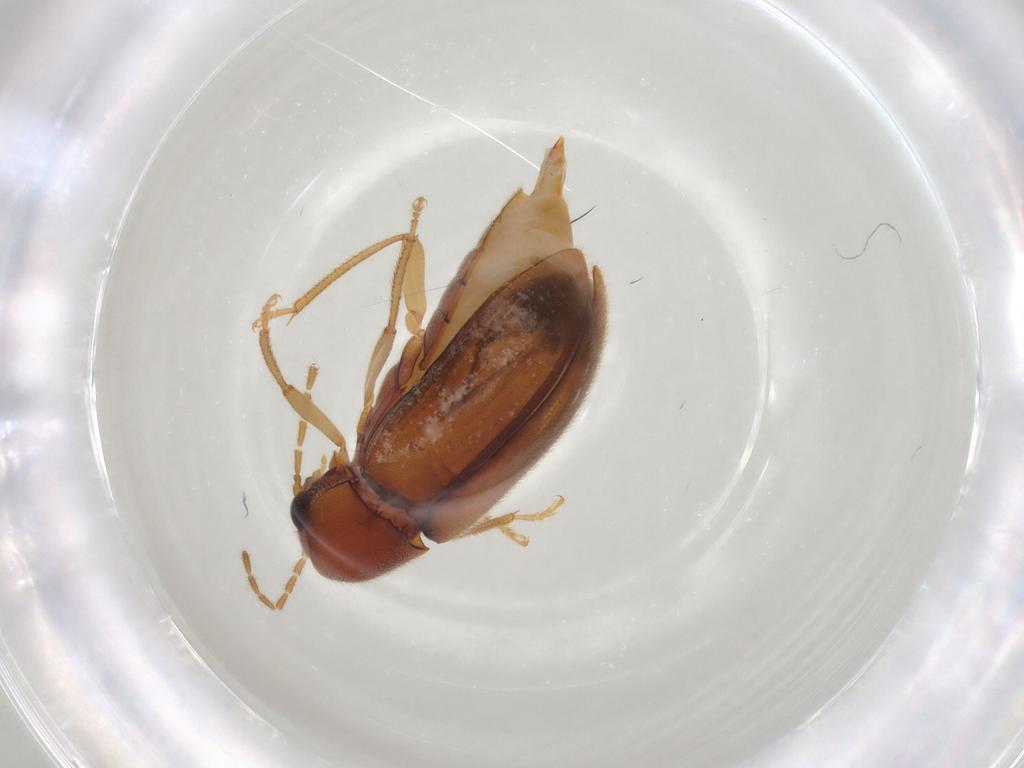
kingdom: Animalia
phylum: Arthropoda
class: Insecta
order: Coleoptera
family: Ptilodactylidae
